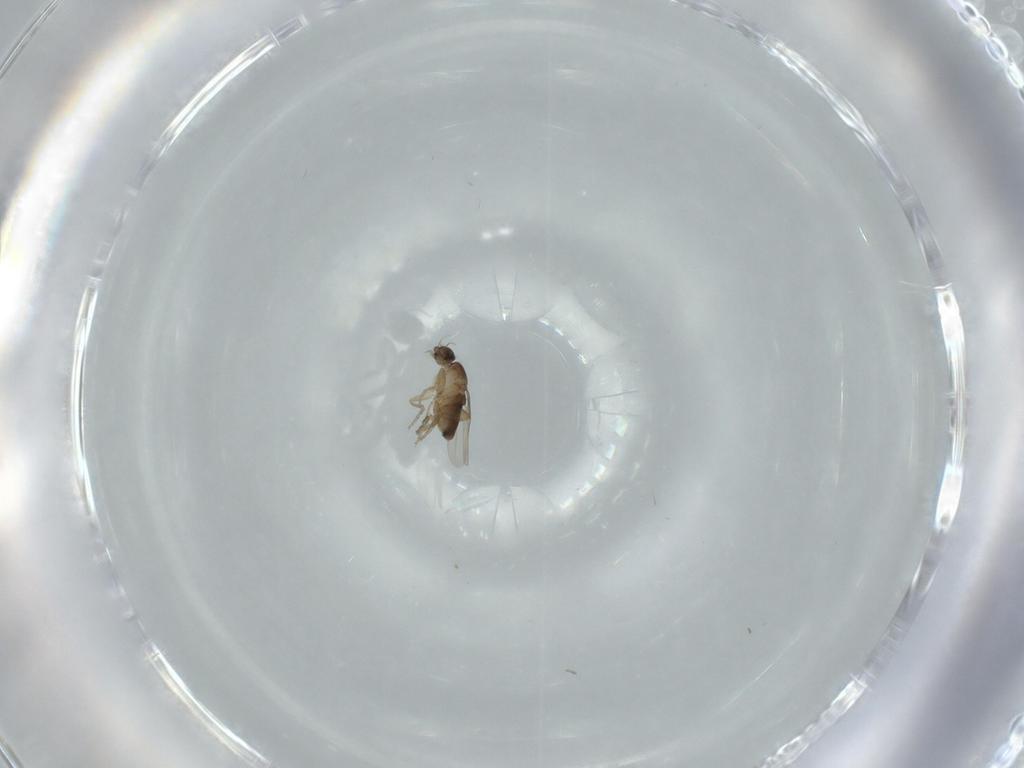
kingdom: Animalia
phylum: Arthropoda
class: Insecta
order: Diptera
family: Phoridae
